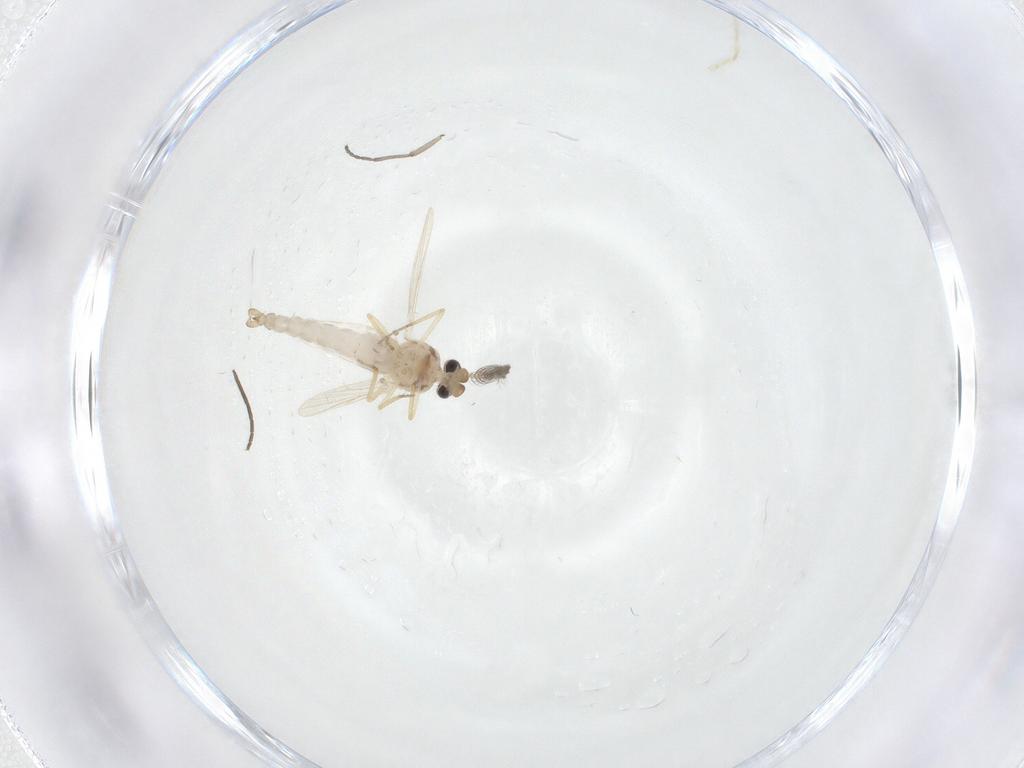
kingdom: Animalia
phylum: Arthropoda
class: Insecta
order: Diptera
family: Ceratopogonidae
